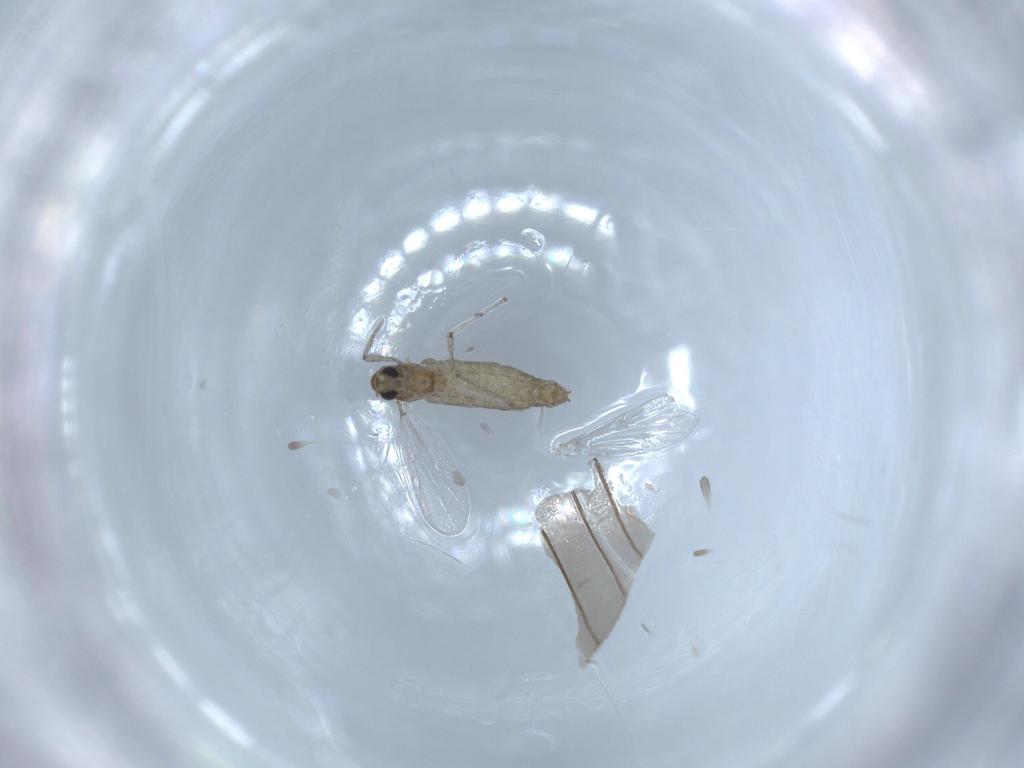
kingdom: Animalia
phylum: Arthropoda
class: Insecta
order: Diptera
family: Chironomidae
